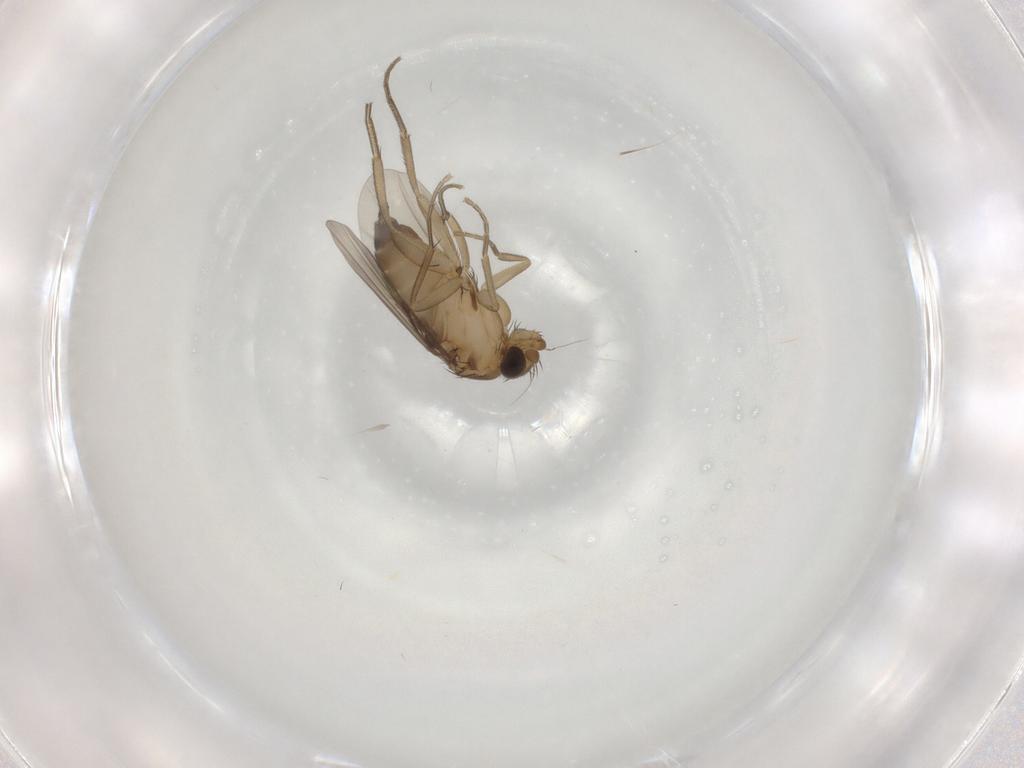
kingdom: Animalia
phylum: Arthropoda
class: Insecta
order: Diptera
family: Phoridae
